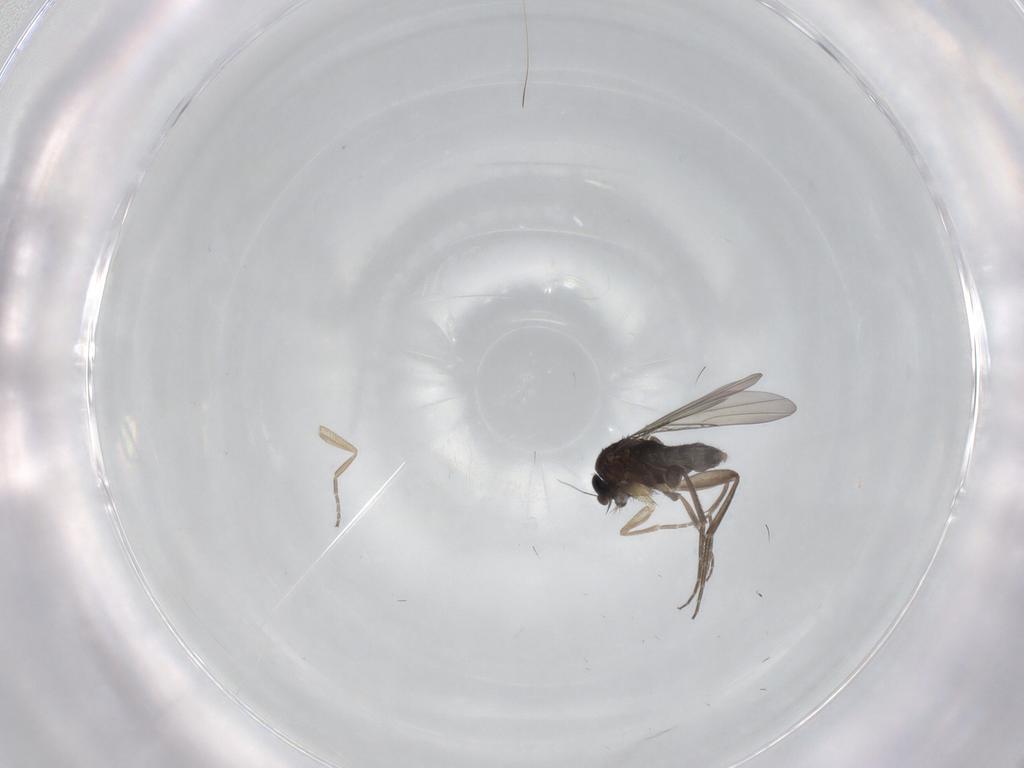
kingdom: Animalia
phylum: Arthropoda
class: Insecta
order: Diptera
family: Phoridae
